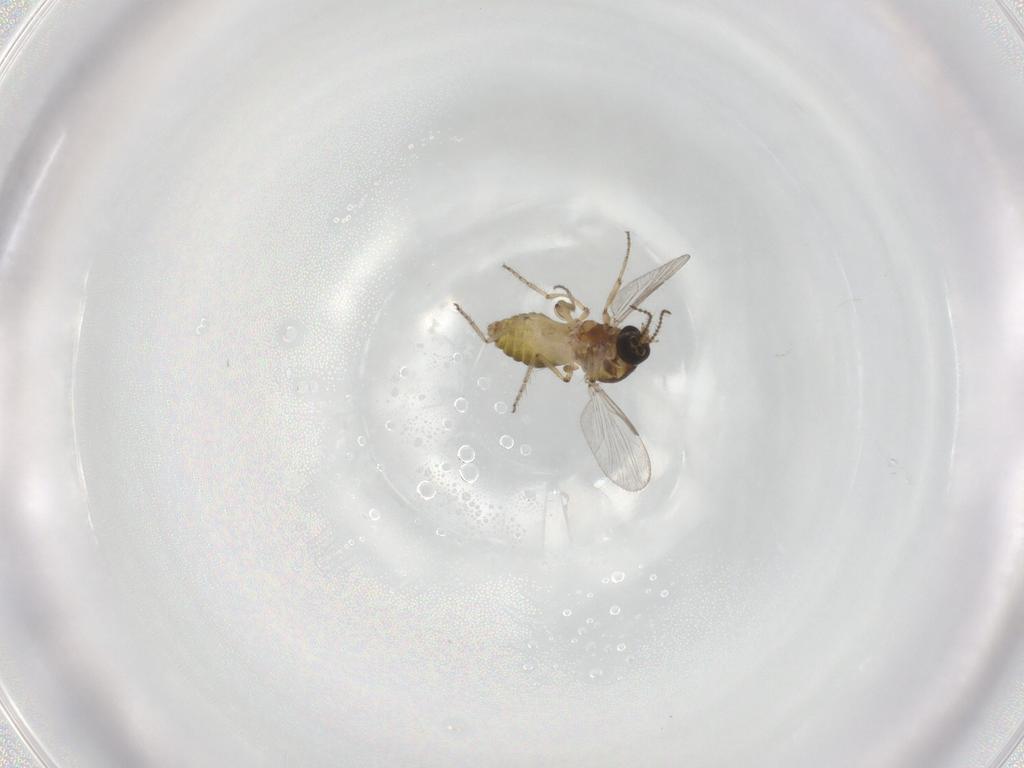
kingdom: Animalia
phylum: Arthropoda
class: Insecta
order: Diptera
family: Ceratopogonidae
